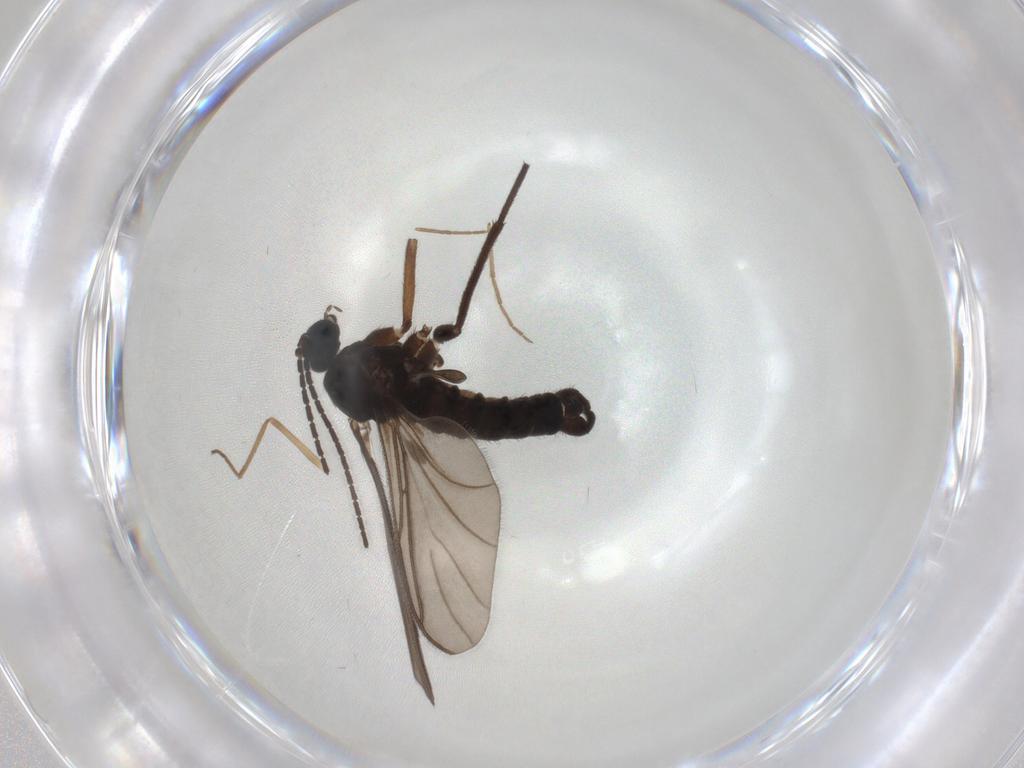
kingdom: Animalia
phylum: Arthropoda
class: Insecta
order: Diptera
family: Sciaridae
